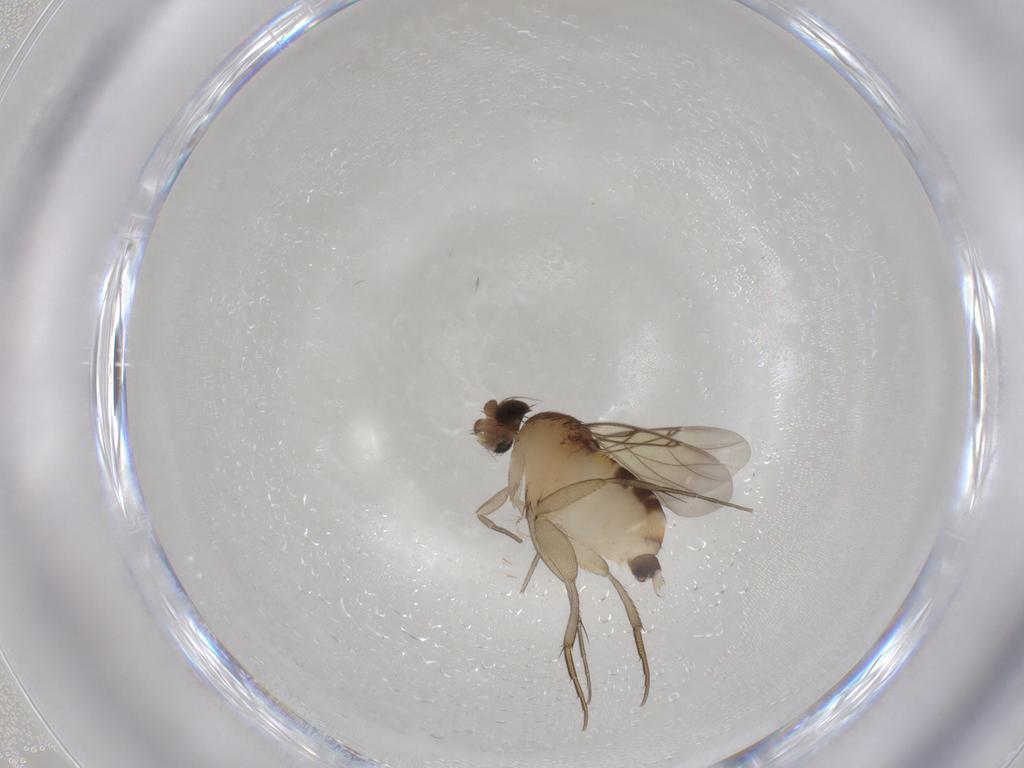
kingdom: Animalia
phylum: Arthropoda
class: Insecta
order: Diptera
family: Phoridae
